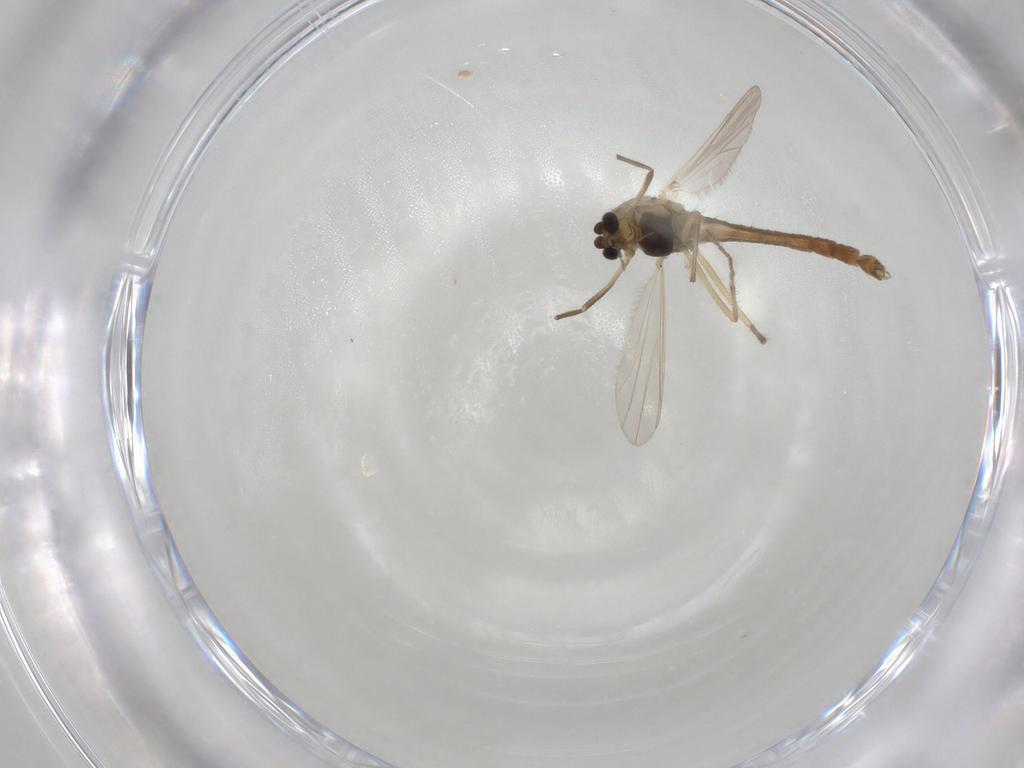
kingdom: Animalia
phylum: Arthropoda
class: Insecta
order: Diptera
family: Chironomidae
